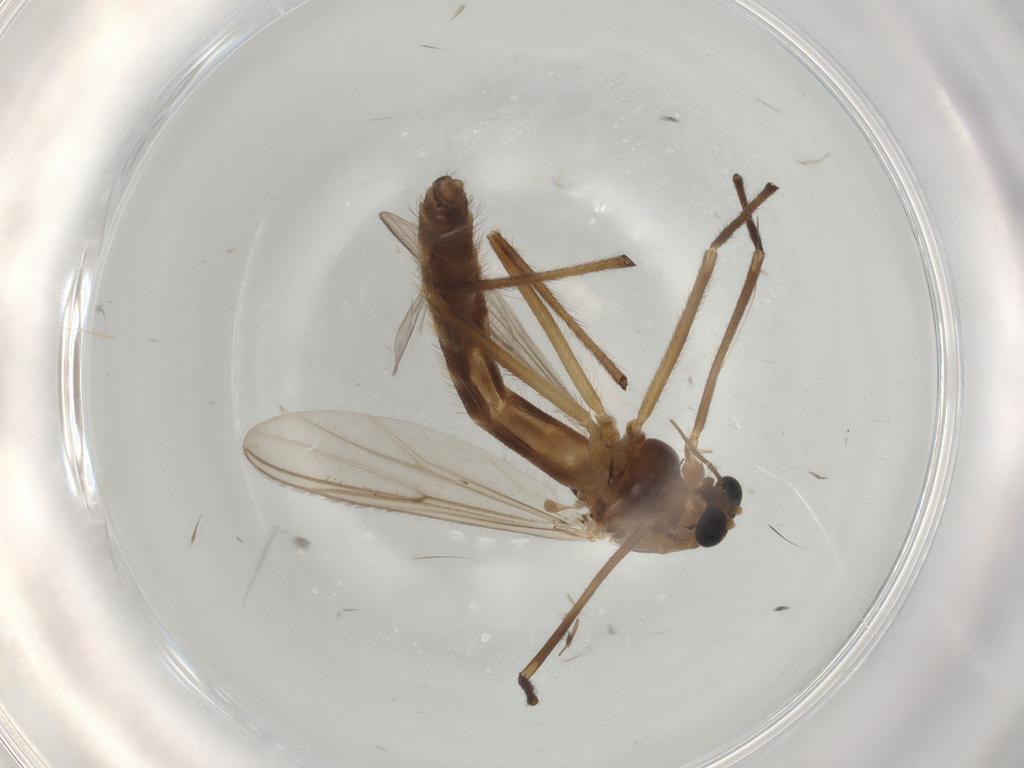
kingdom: Animalia
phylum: Arthropoda
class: Insecta
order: Diptera
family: Chironomidae
